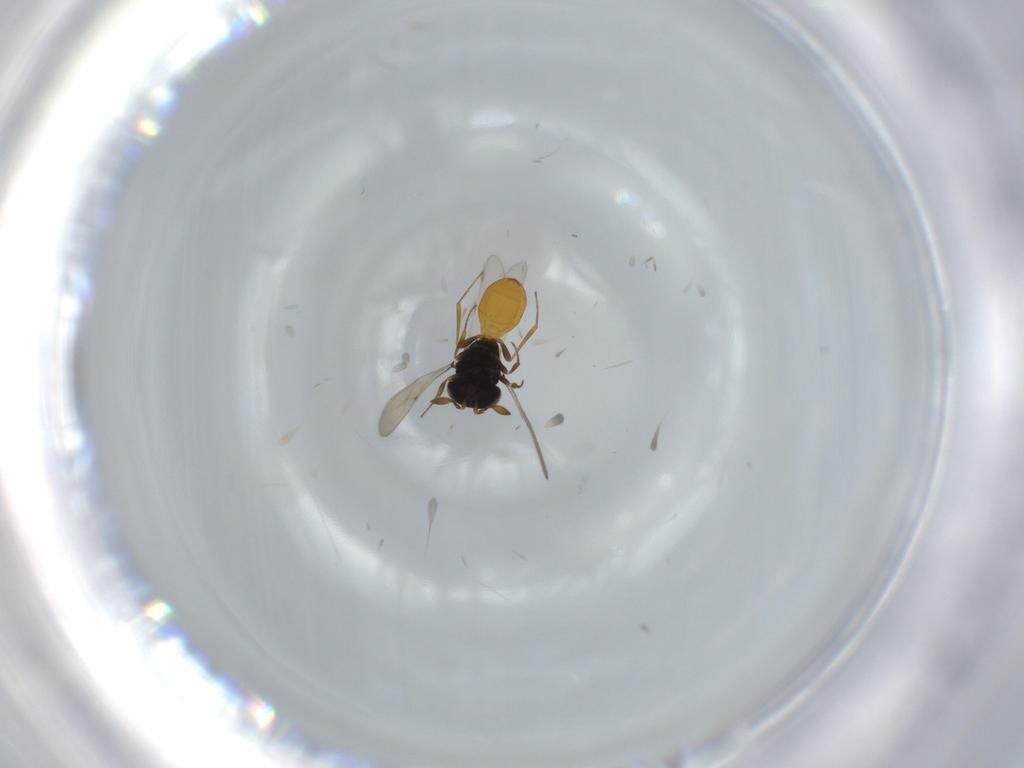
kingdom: Animalia
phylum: Arthropoda
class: Insecta
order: Hymenoptera
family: Scelionidae
